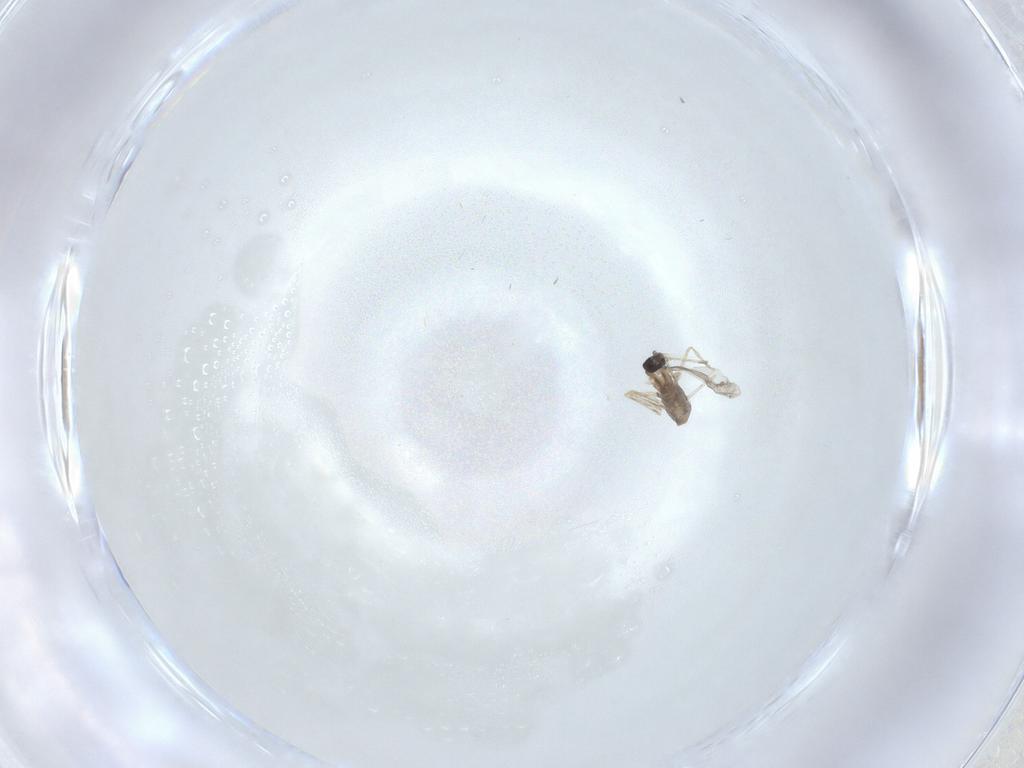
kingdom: Animalia
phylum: Arthropoda
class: Insecta
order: Diptera
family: Cecidomyiidae
